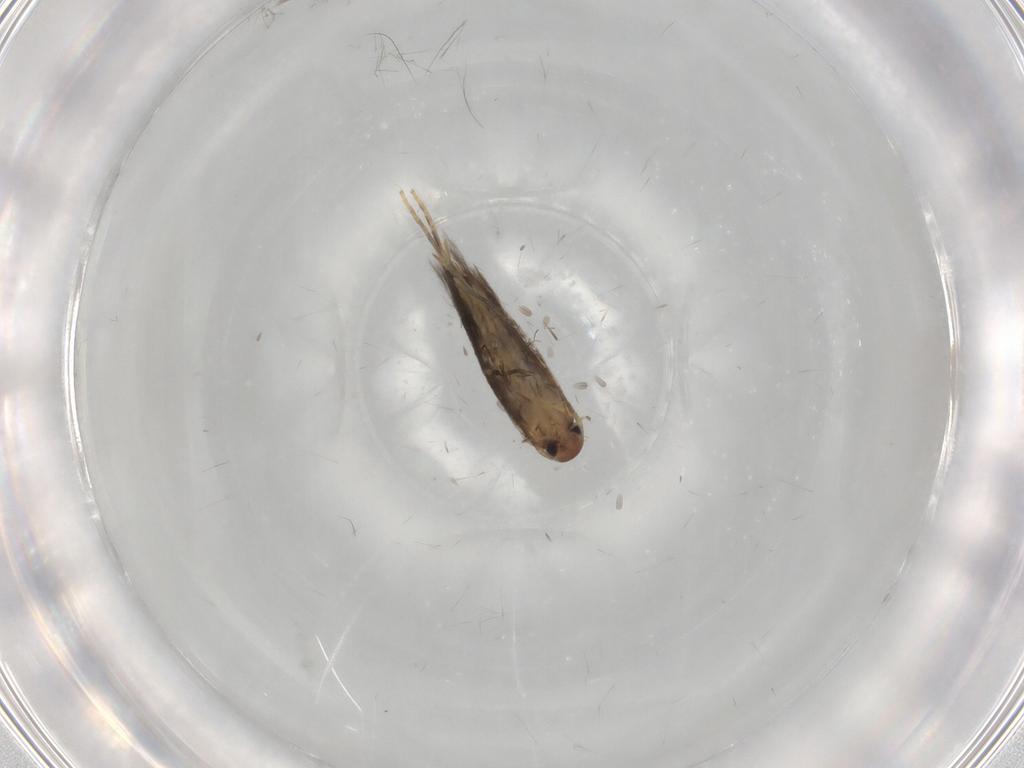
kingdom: Animalia
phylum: Arthropoda
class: Insecta
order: Lepidoptera
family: Elachistidae
